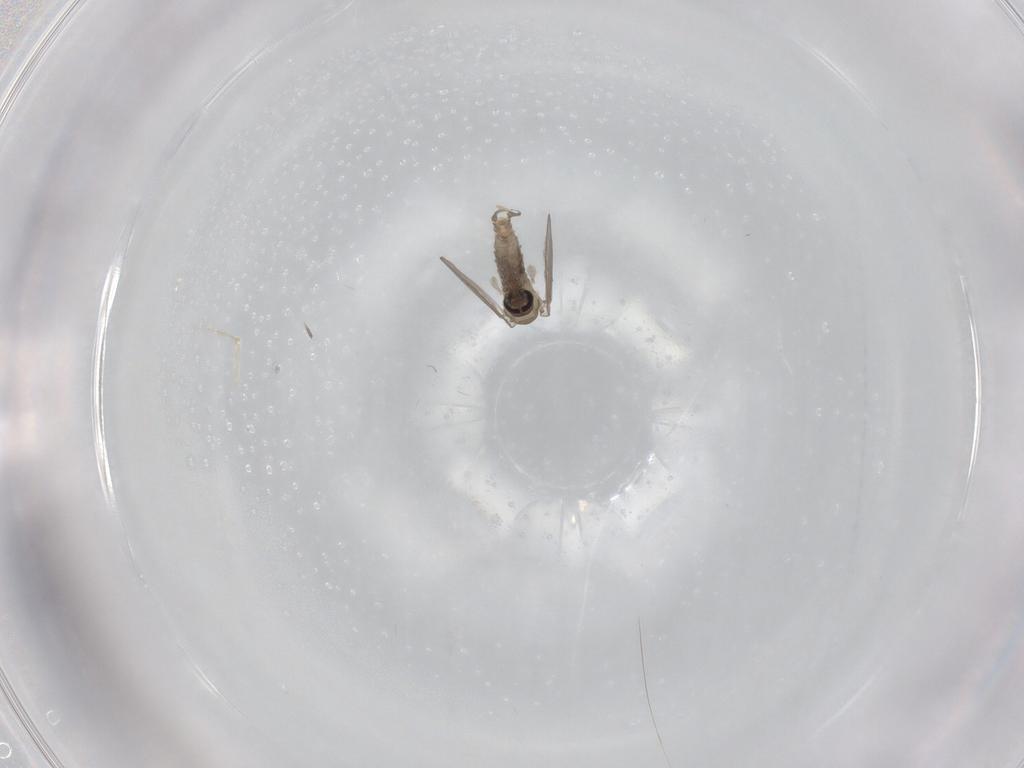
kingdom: Animalia
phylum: Arthropoda
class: Insecta
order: Diptera
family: Psychodidae
